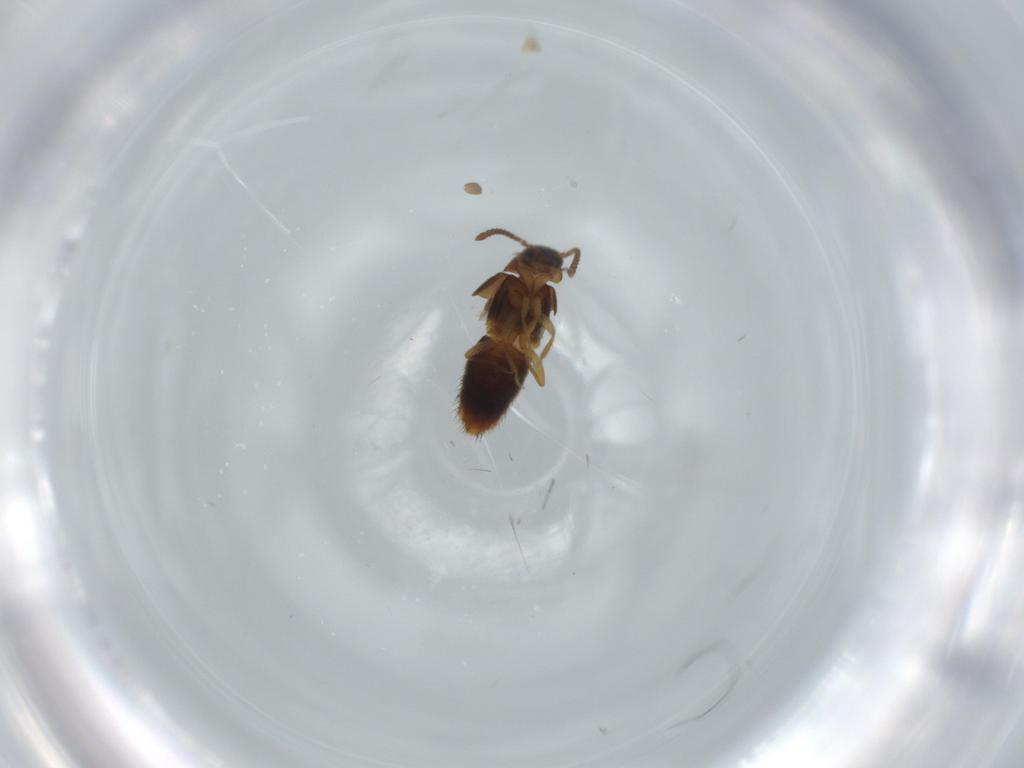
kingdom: Animalia
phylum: Arthropoda
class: Insecta
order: Coleoptera
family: Staphylinidae
